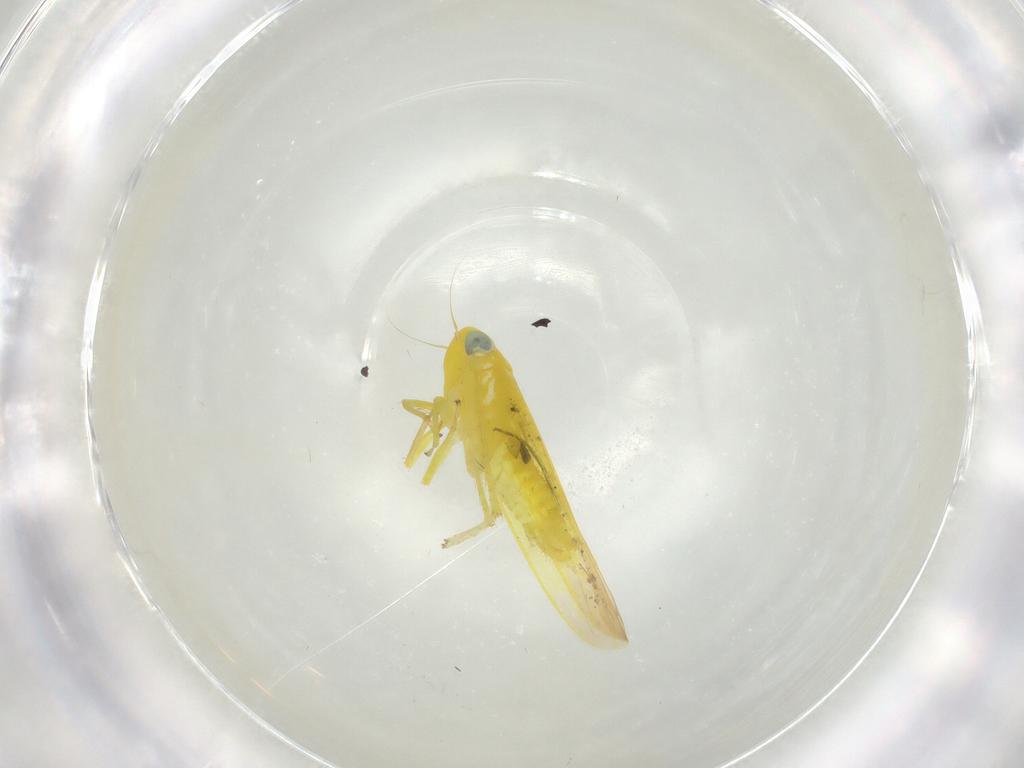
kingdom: Animalia
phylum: Arthropoda
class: Insecta
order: Hemiptera
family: Cicadellidae
